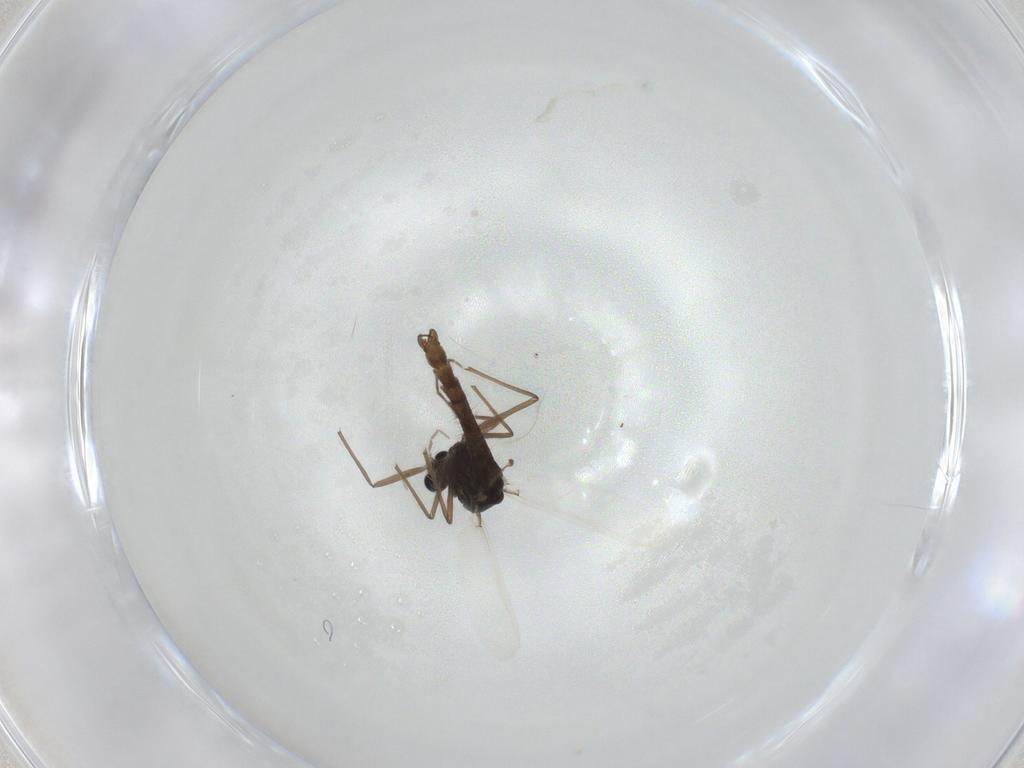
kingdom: Animalia
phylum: Arthropoda
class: Insecta
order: Diptera
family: Chironomidae
